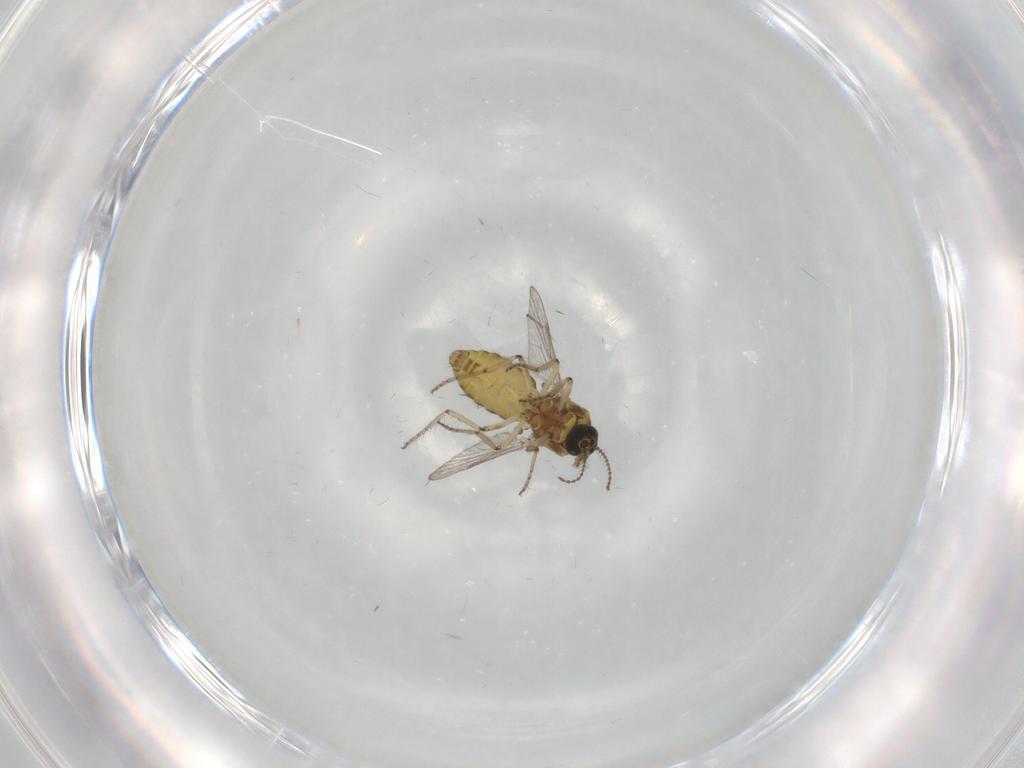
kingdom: Animalia
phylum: Arthropoda
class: Insecta
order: Diptera
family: Ceratopogonidae
